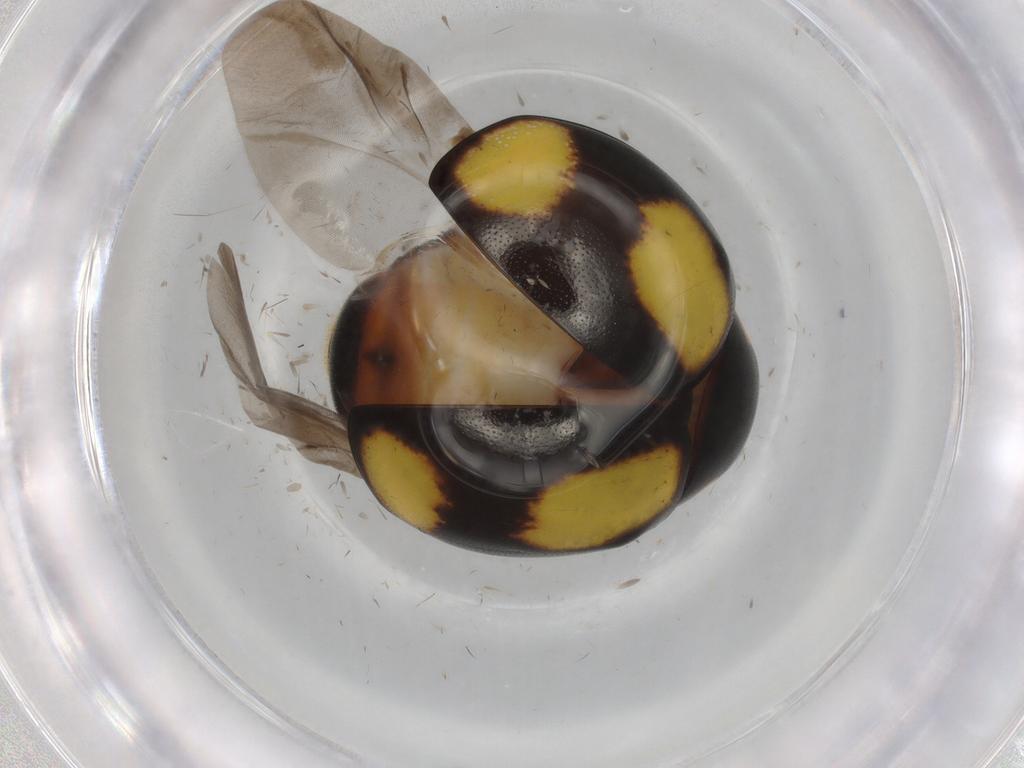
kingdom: Animalia
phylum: Arthropoda
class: Insecta
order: Coleoptera
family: Coccinellidae
